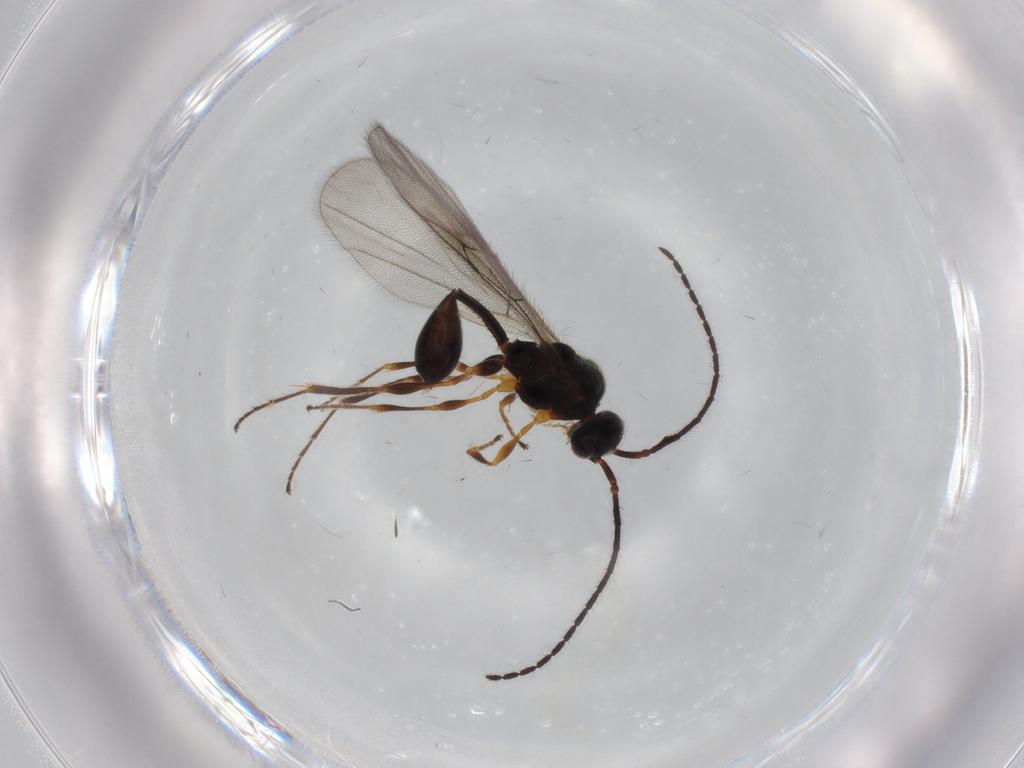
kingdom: Animalia
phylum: Arthropoda
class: Insecta
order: Hymenoptera
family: Diapriidae
